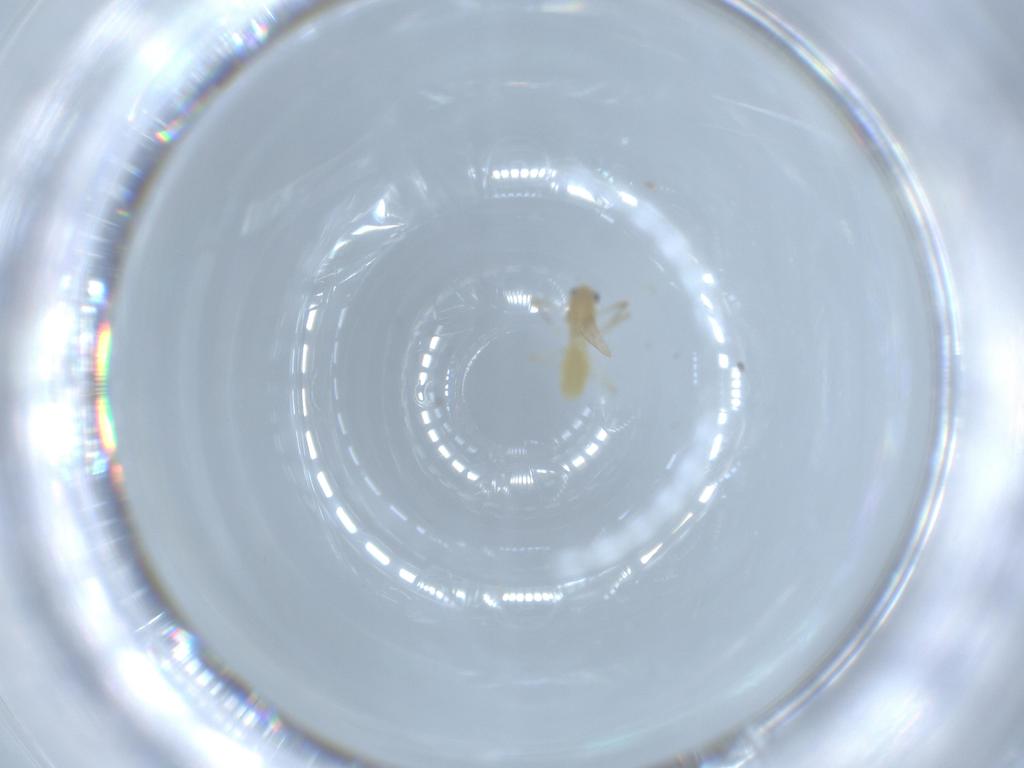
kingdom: Animalia
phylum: Arthropoda
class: Insecta
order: Diptera
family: Chironomidae
